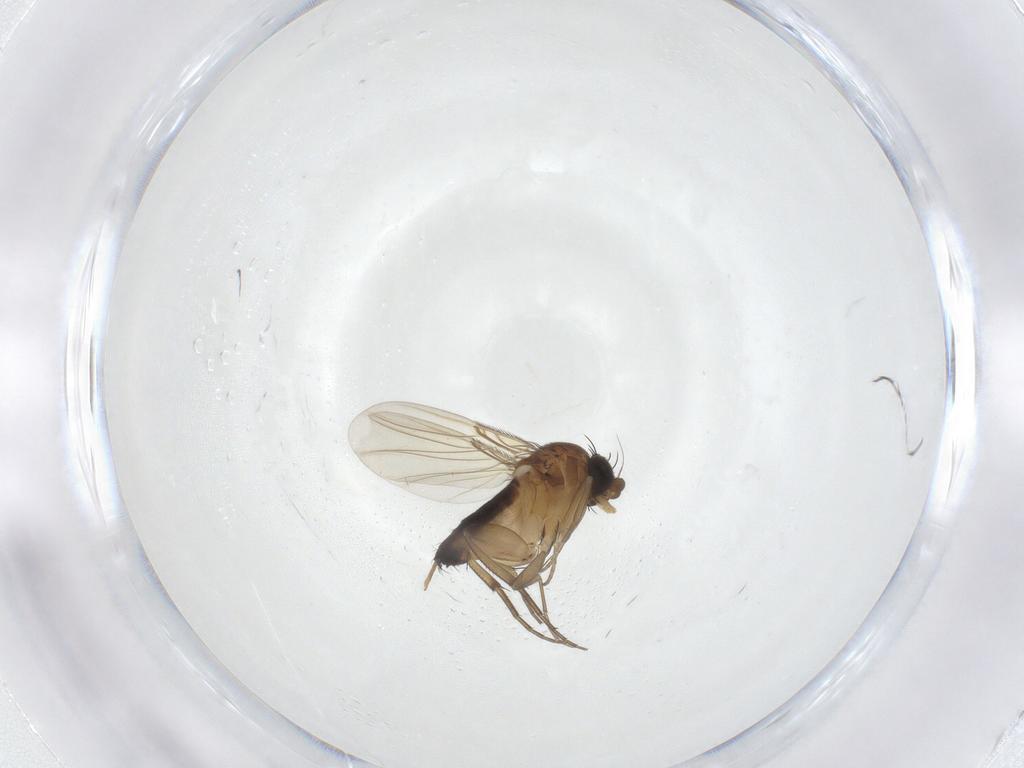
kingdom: Animalia
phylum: Arthropoda
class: Insecta
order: Diptera
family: Phoridae
